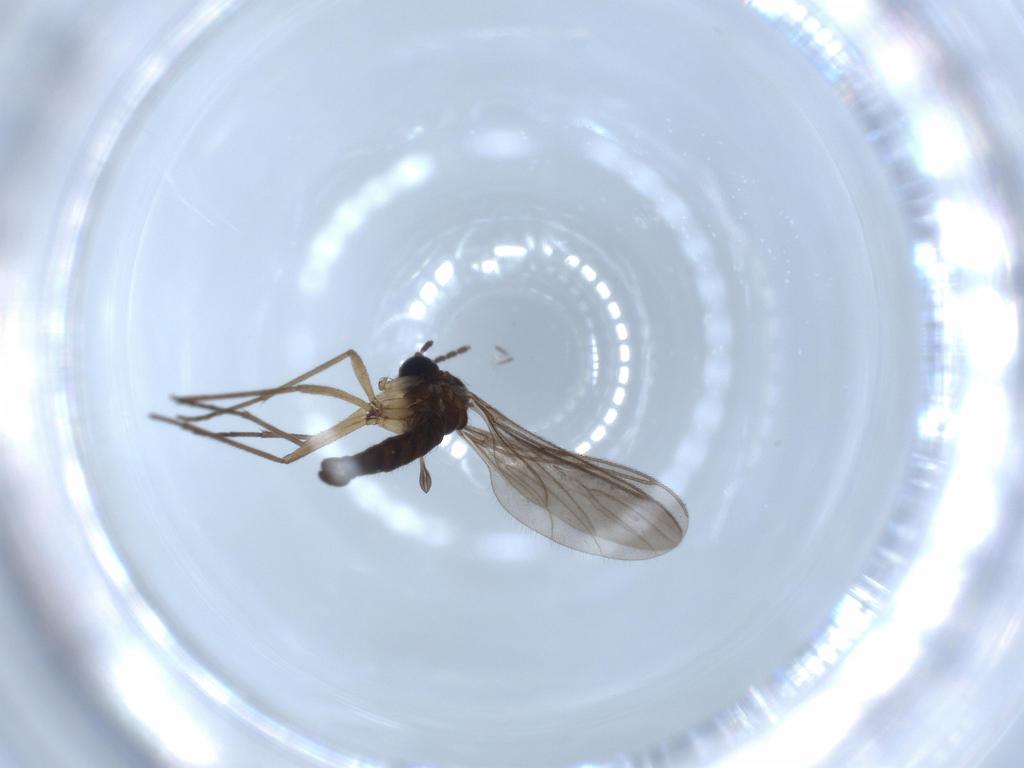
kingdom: Animalia
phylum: Arthropoda
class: Insecta
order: Diptera
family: Sciaridae
